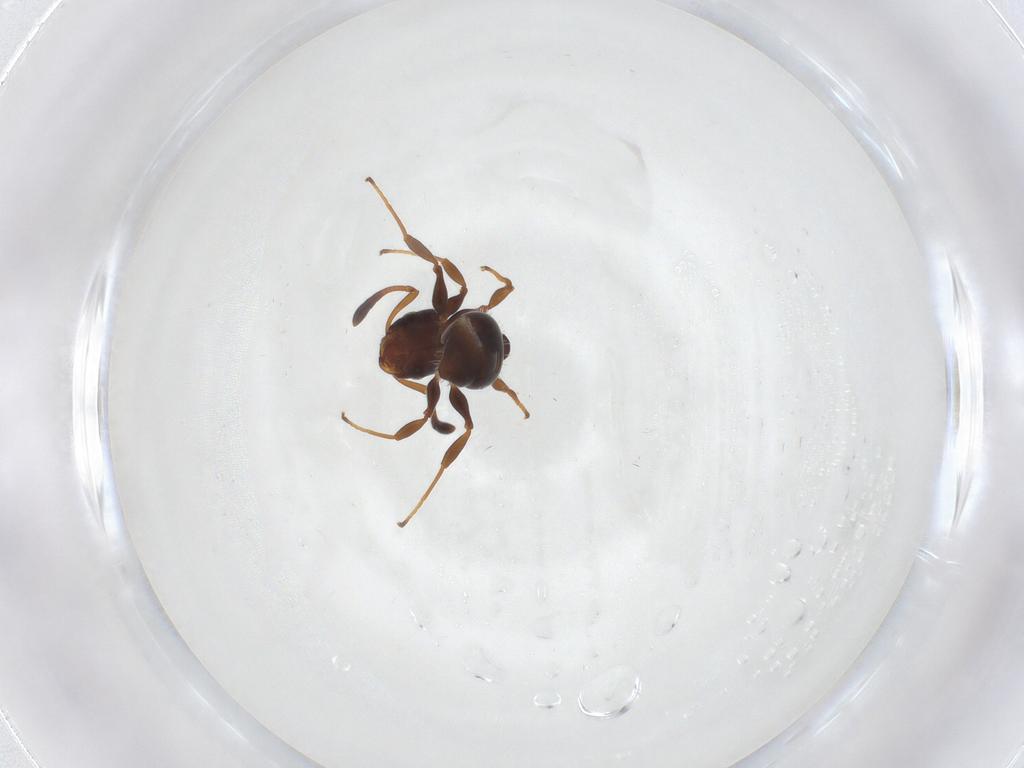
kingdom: Animalia
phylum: Arthropoda
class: Insecta
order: Hymenoptera
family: Formicidae
